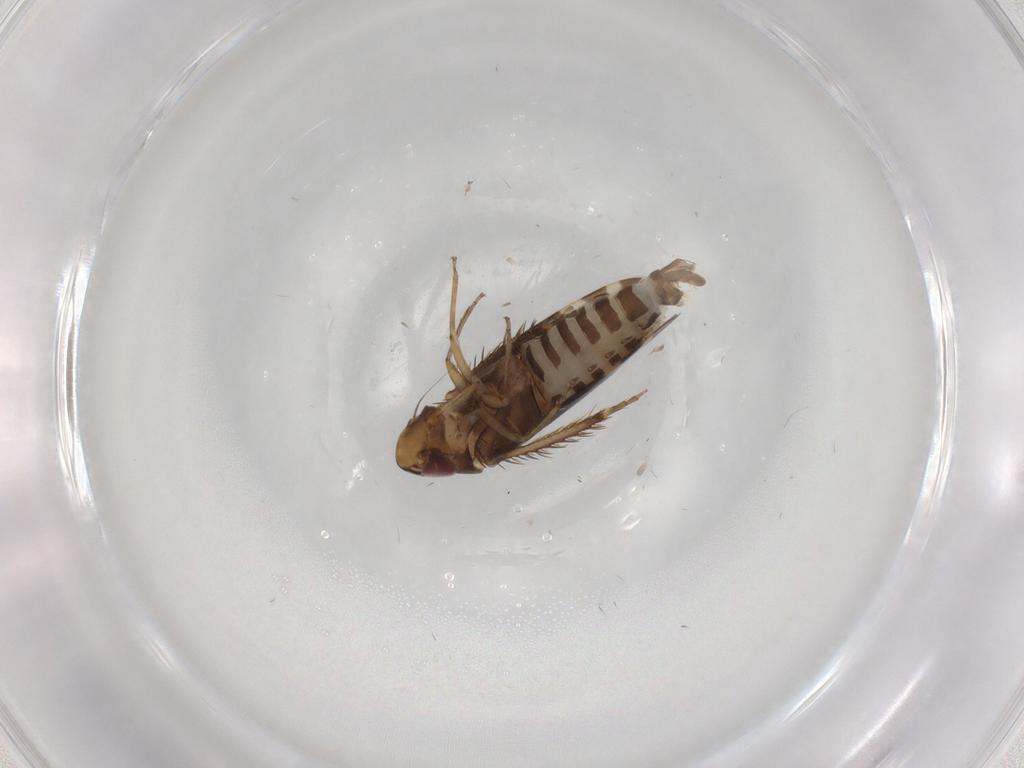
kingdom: Animalia
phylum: Arthropoda
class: Insecta
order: Hemiptera
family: Cicadellidae
